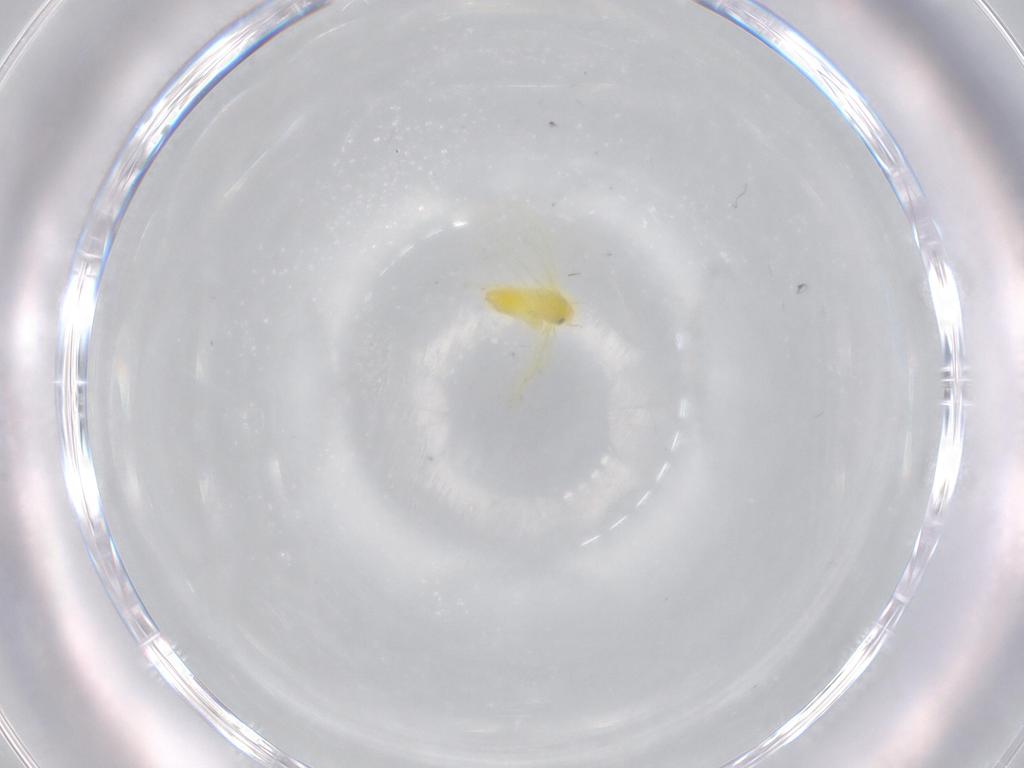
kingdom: Animalia
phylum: Arthropoda
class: Insecta
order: Hemiptera
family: Aleyrodidae
